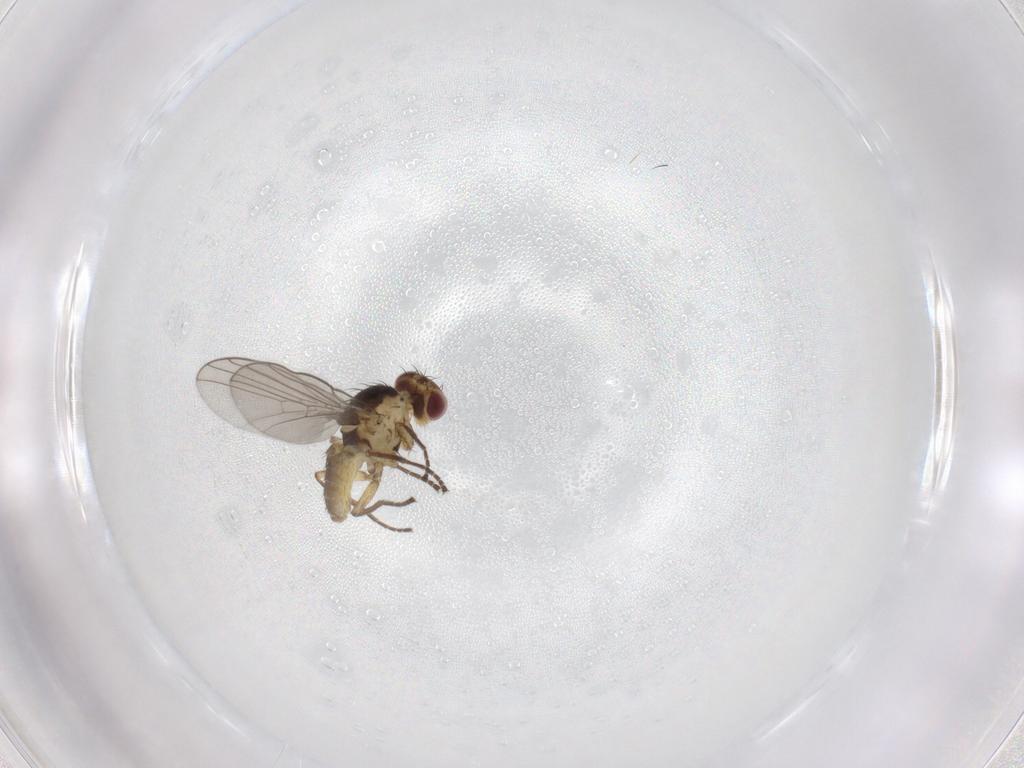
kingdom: Animalia
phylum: Arthropoda
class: Insecta
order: Diptera
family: Agromyzidae
